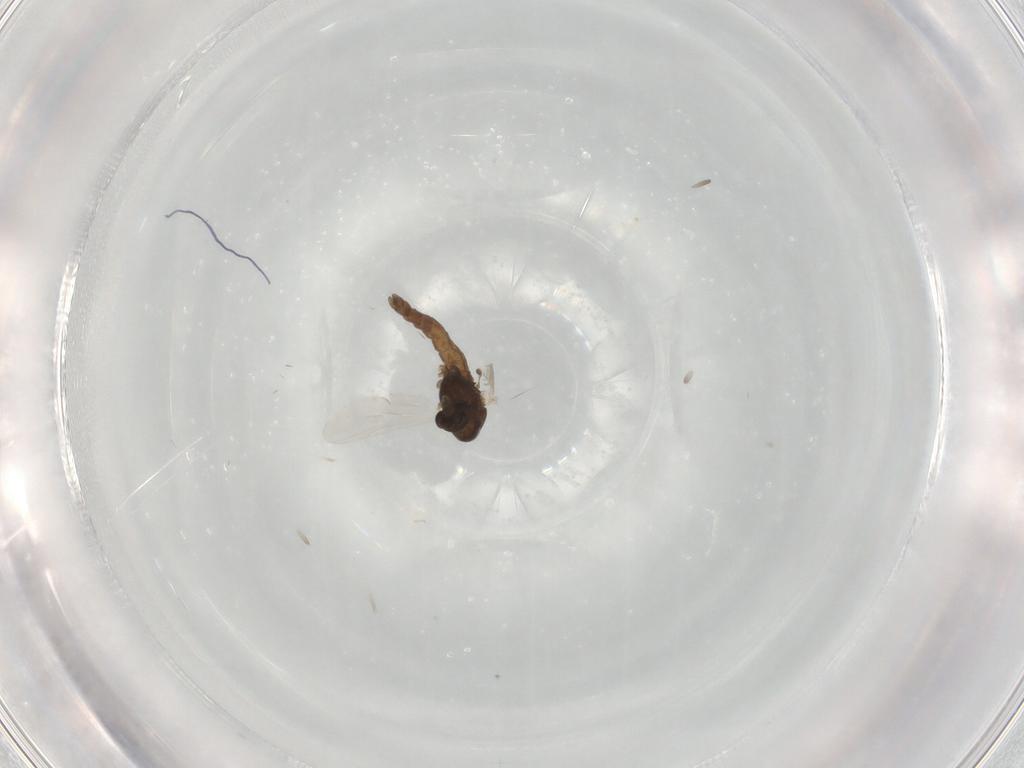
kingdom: Animalia
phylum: Arthropoda
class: Insecta
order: Diptera
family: Chironomidae
